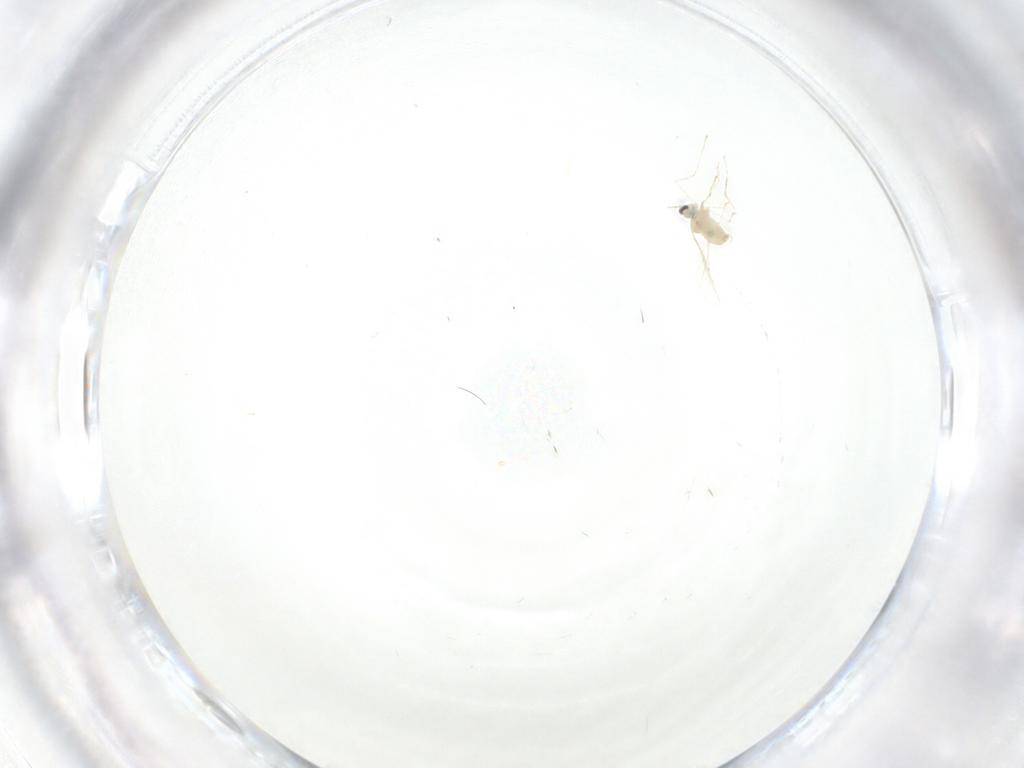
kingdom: Animalia
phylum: Arthropoda
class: Insecta
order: Diptera
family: Cecidomyiidae
